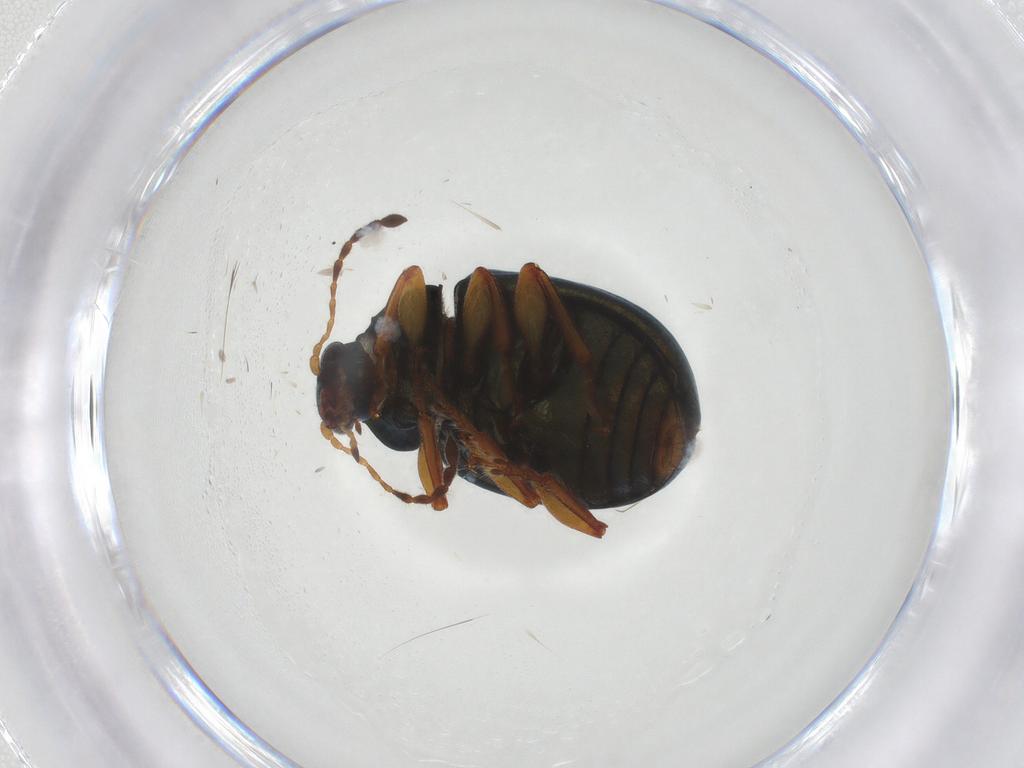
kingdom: Animalia
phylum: Arthropoda
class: Insecta
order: Coleoptera
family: Chrysomelidae
